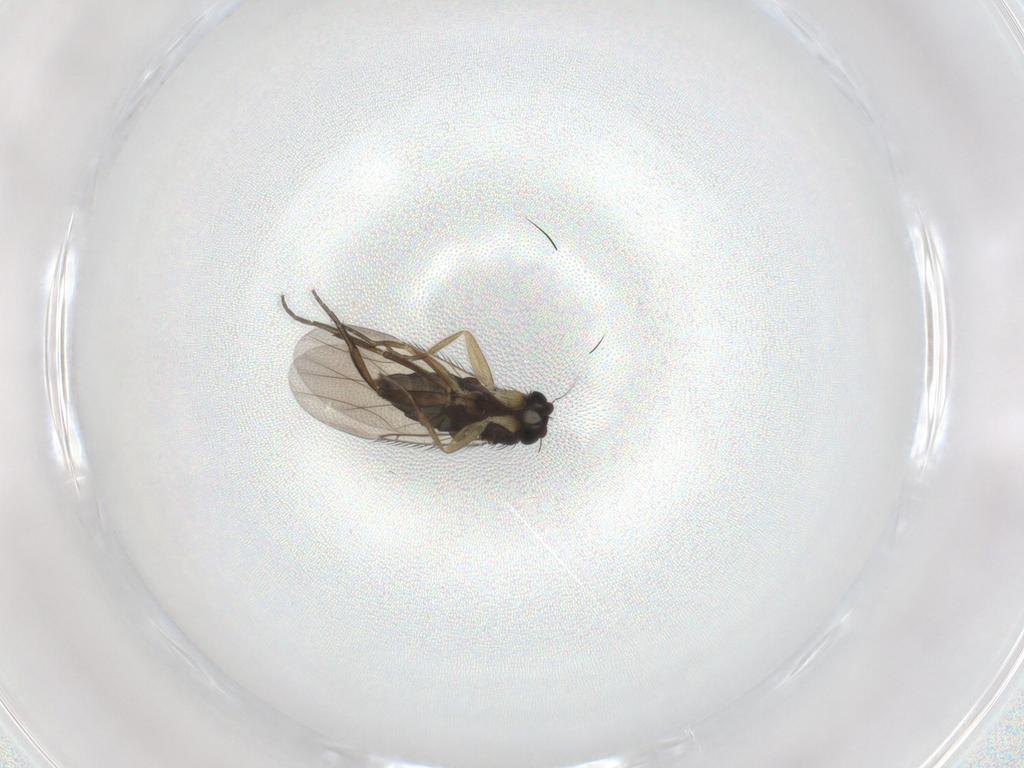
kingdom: Animalia
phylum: Arthropoda
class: Insecta
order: Diptera
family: Phoridae
